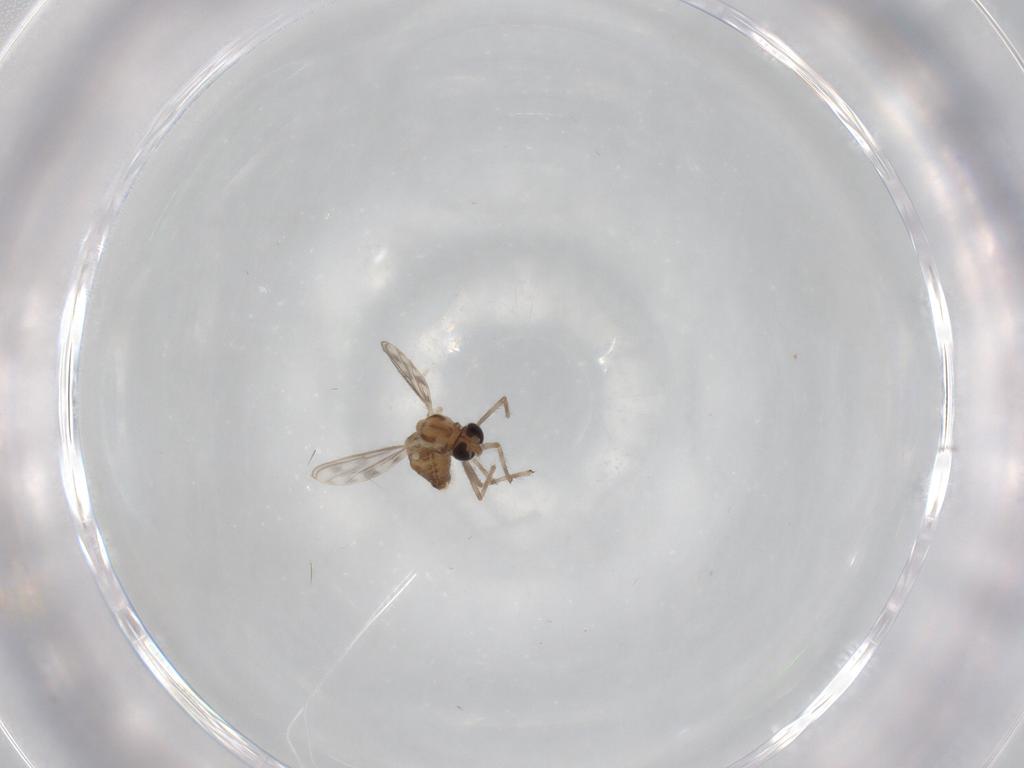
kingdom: Animalia
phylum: Arthropoda
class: Insecta
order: Diptera
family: Chironomidae
